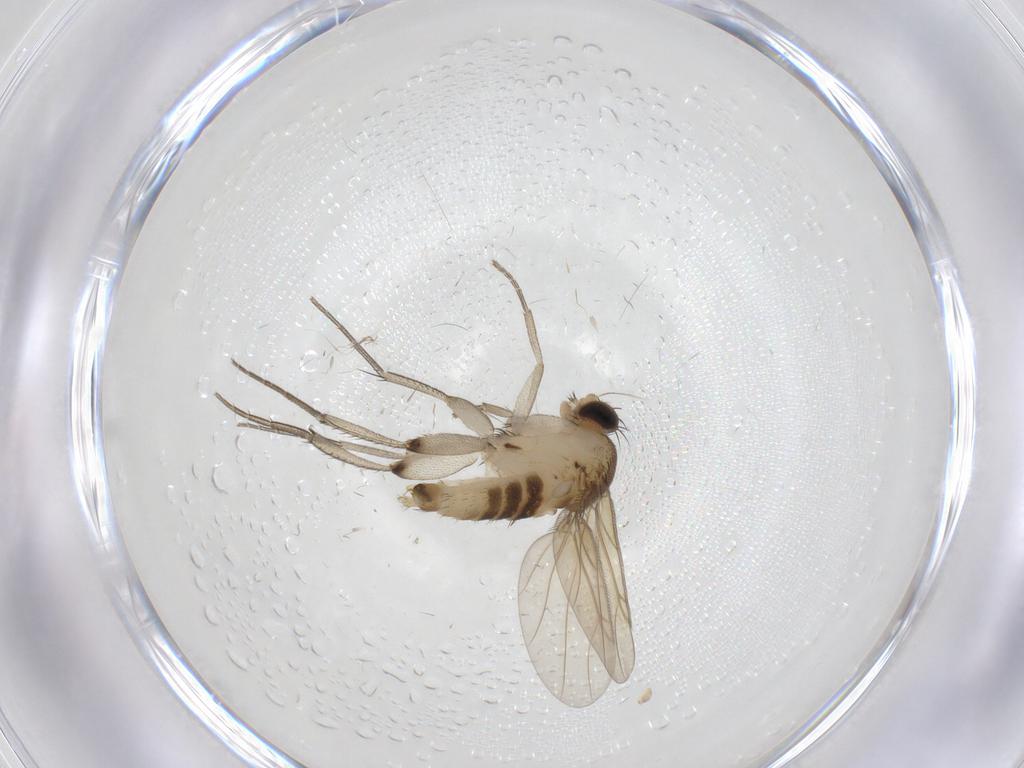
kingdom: Animalia
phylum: Arthropoda
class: Insecta
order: Diptera
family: Phoridae
